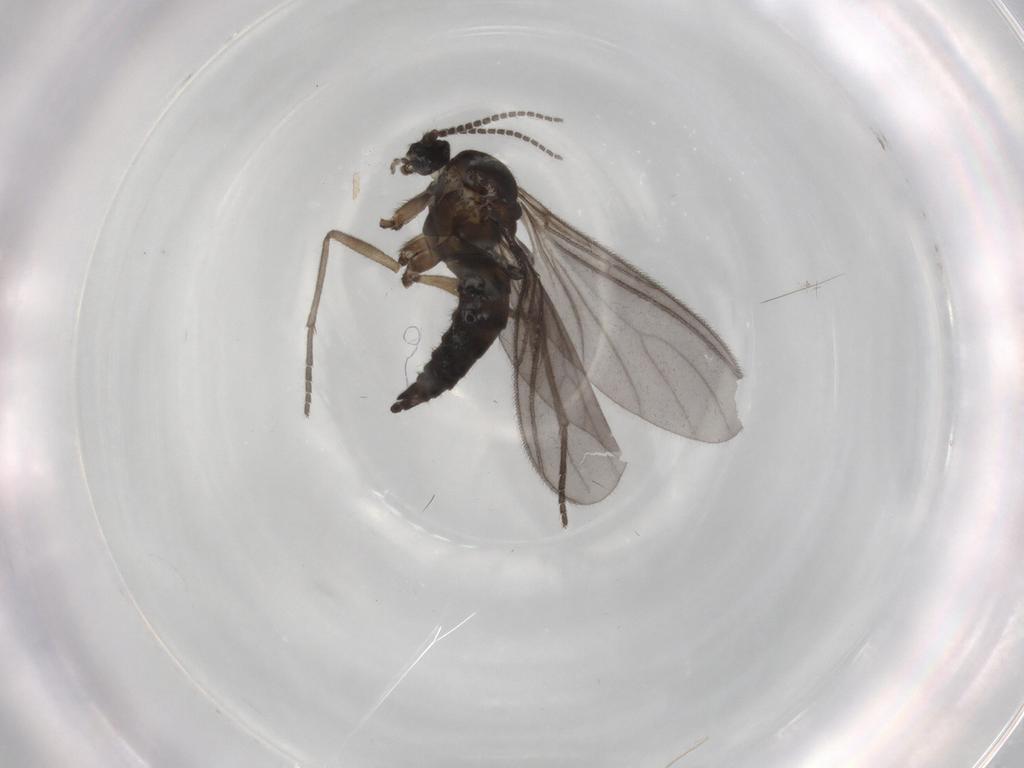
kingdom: Animalia
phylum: Arthropoda
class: Insecta
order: Diptera
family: Sciaridae
